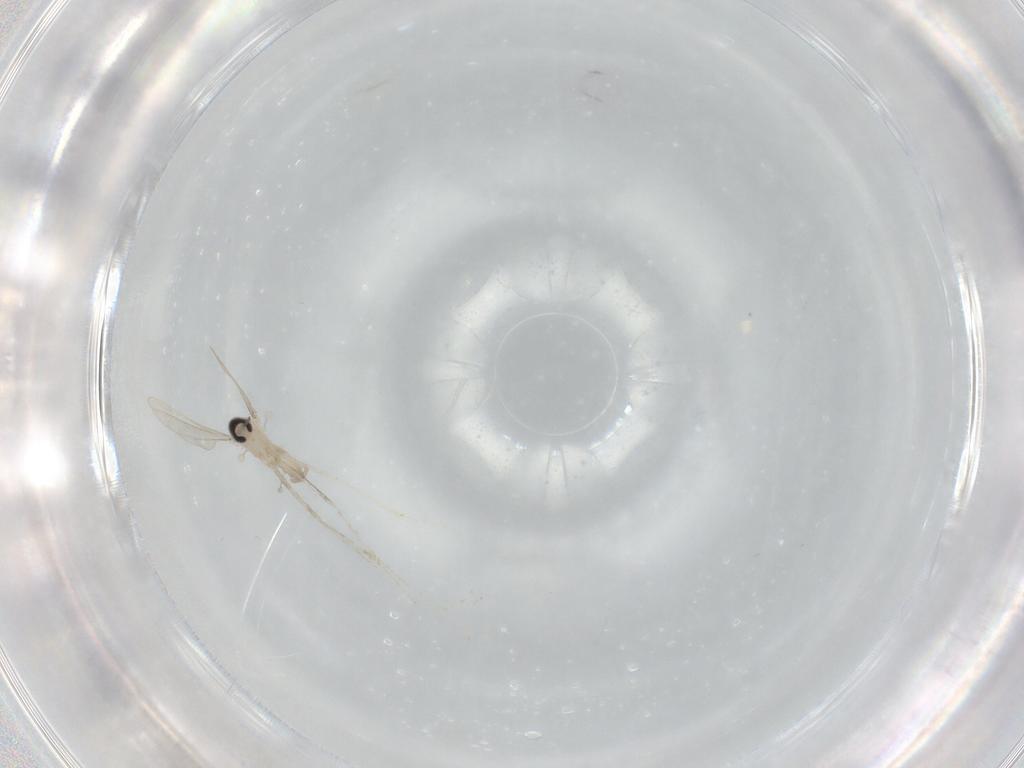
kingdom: Animalia
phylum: Arthropoda
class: Insecta
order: Diptera
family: Cecidomyiidae
